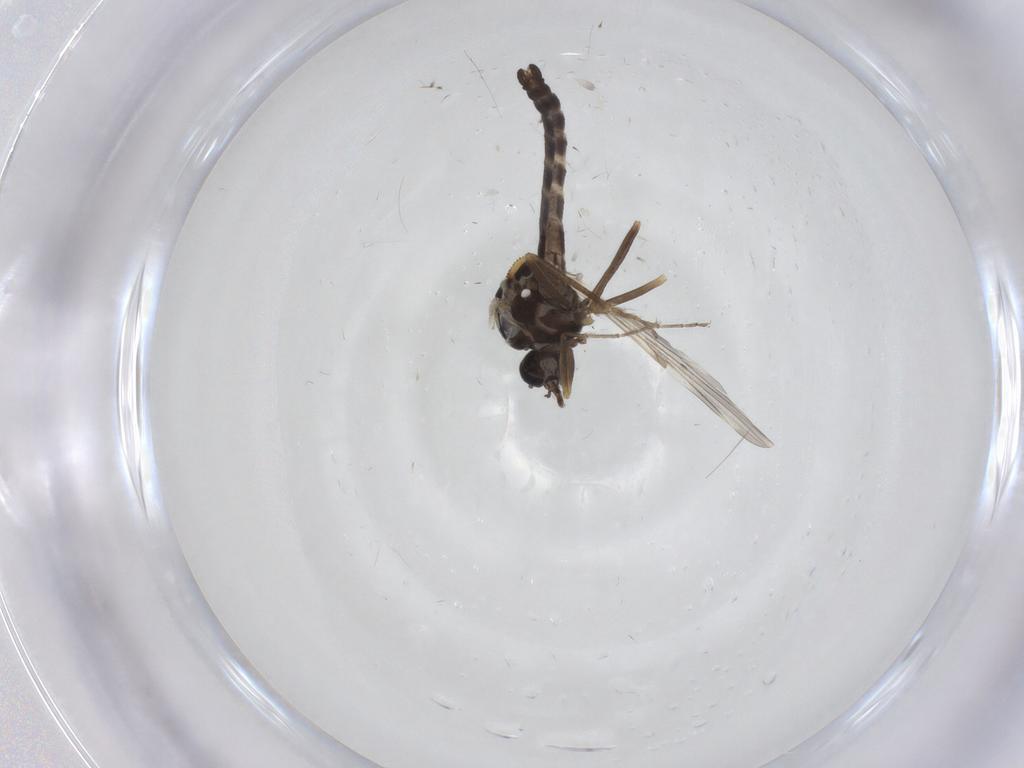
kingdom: Animalia
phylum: Arthropoda
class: Insecta
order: Diptera
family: Ceratopogonidae
